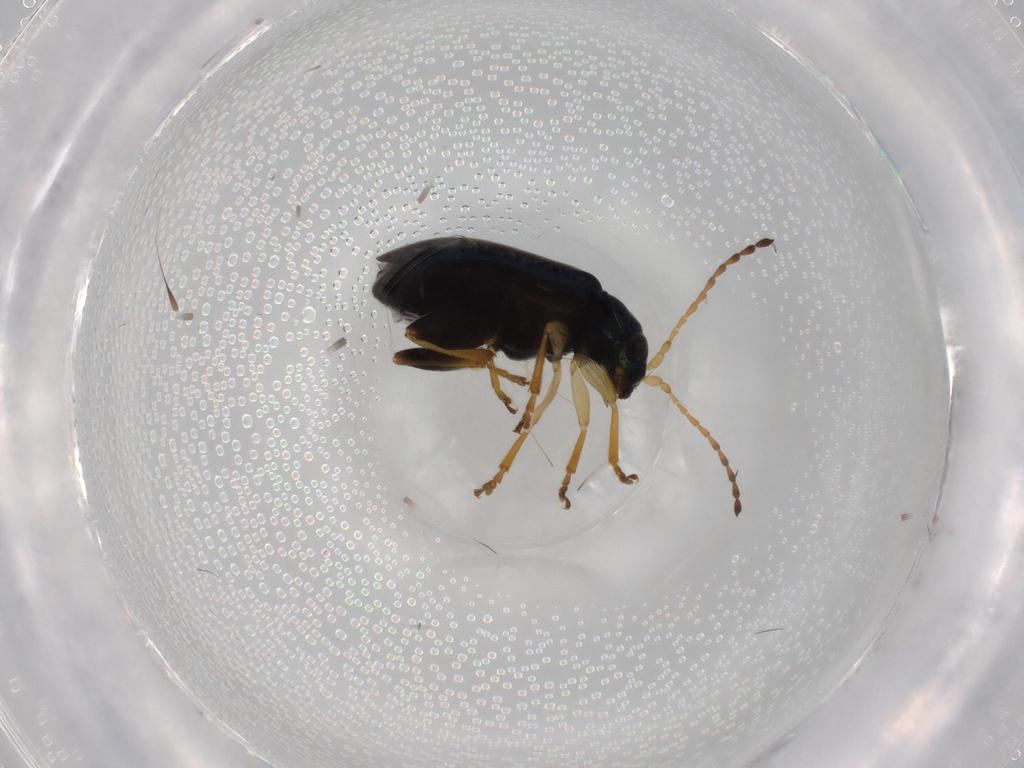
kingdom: Animalia
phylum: Arthropoda
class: Insecta
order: Coleoptera
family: Chrysomelidae
